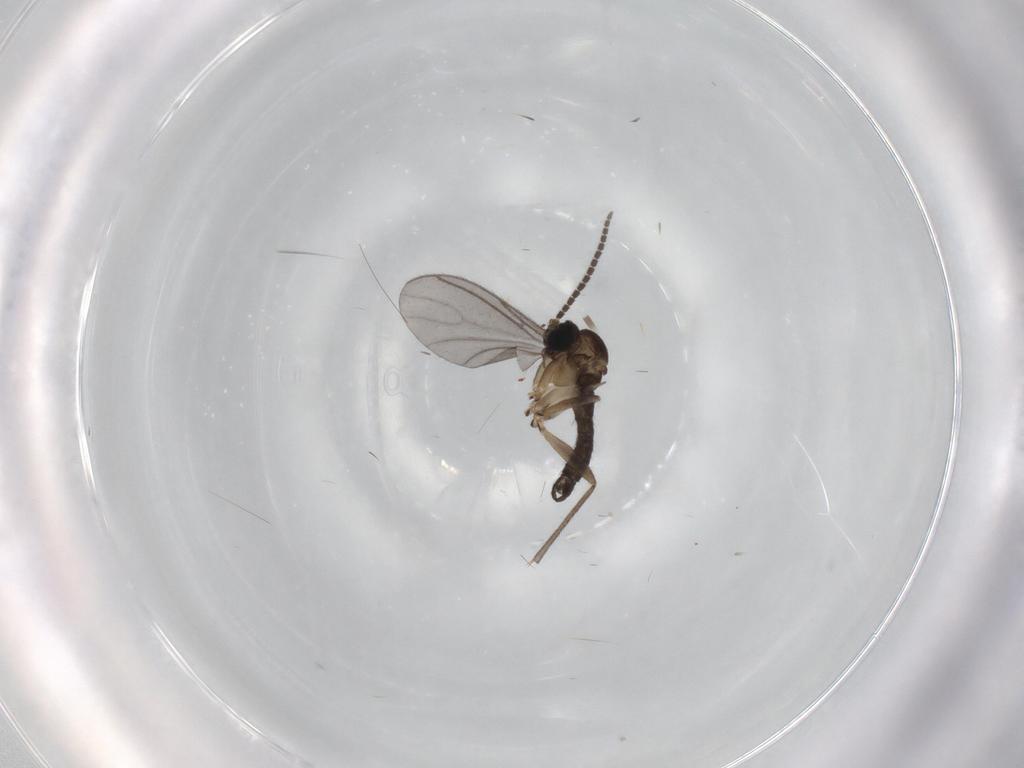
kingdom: Animalia
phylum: Arthropoda
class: Insecta
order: Diptera
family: Sciaridae
